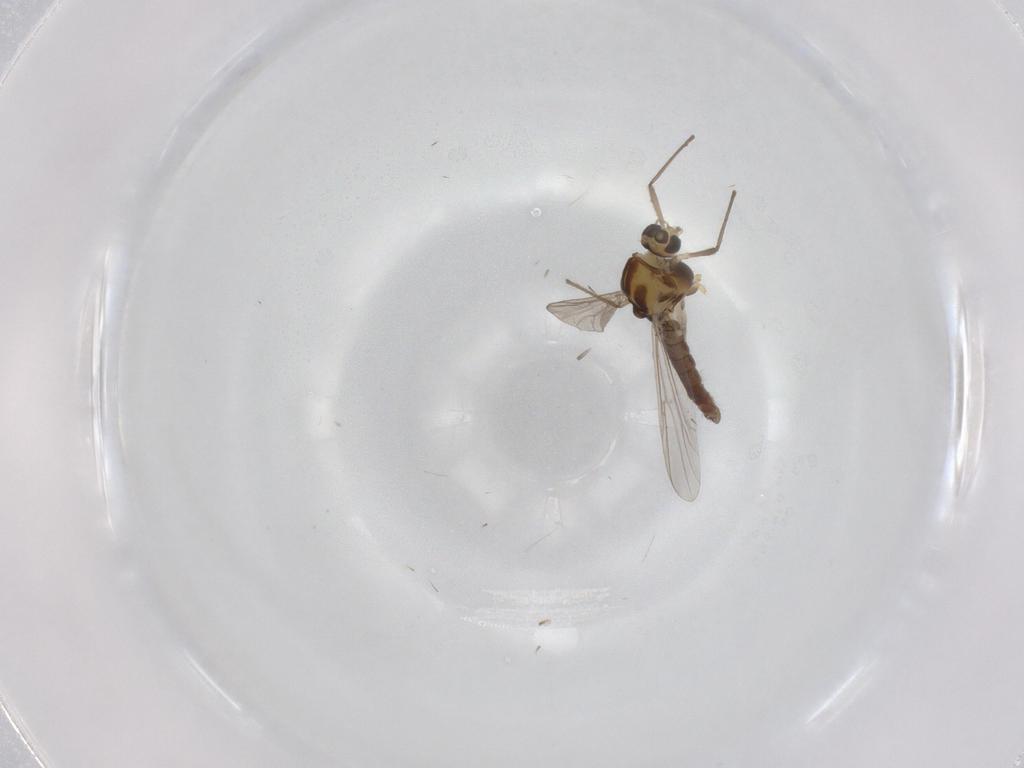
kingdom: Animalia
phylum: Arthropoda
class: Insecta
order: Diptera
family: Chironomidae
